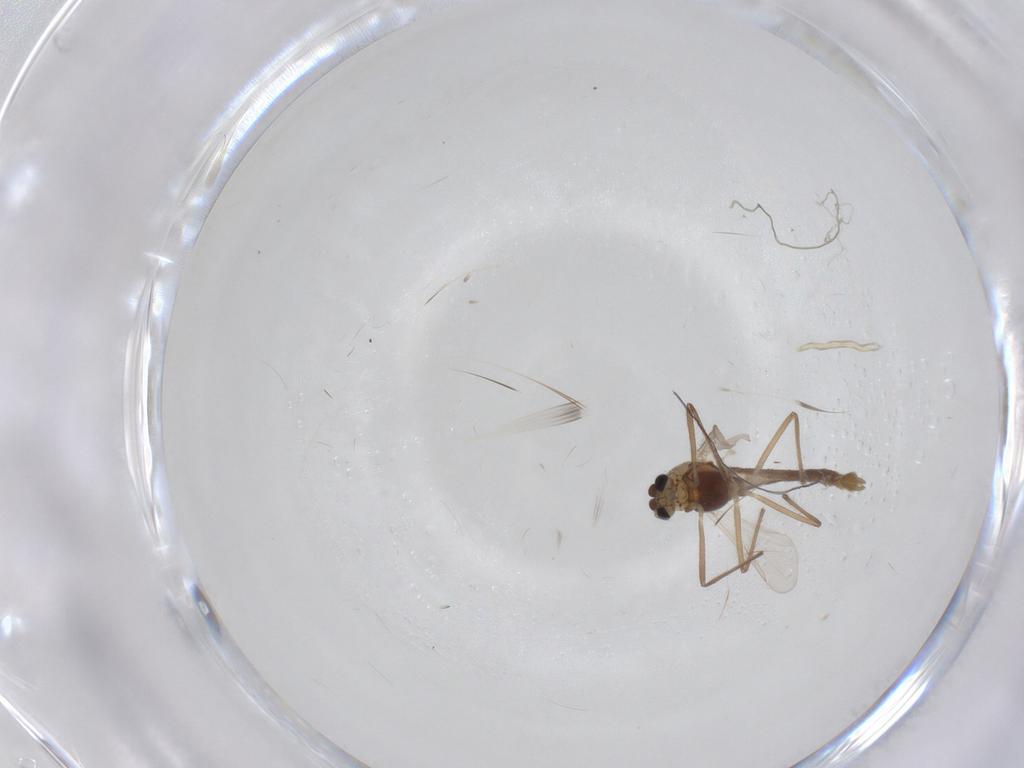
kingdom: Animalia
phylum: Arthropoda
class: Insecta
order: Diptera
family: Chironomidae
